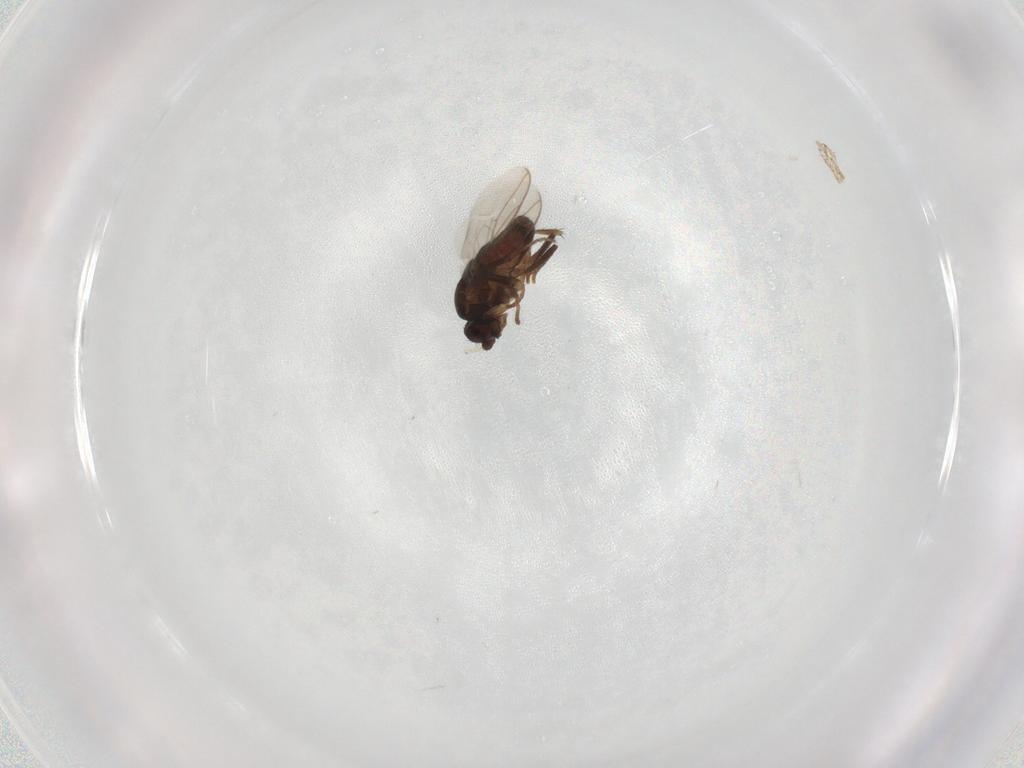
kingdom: Animalia
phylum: Arthropoda
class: Insecta
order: Diptera
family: Sphaeroceridae
